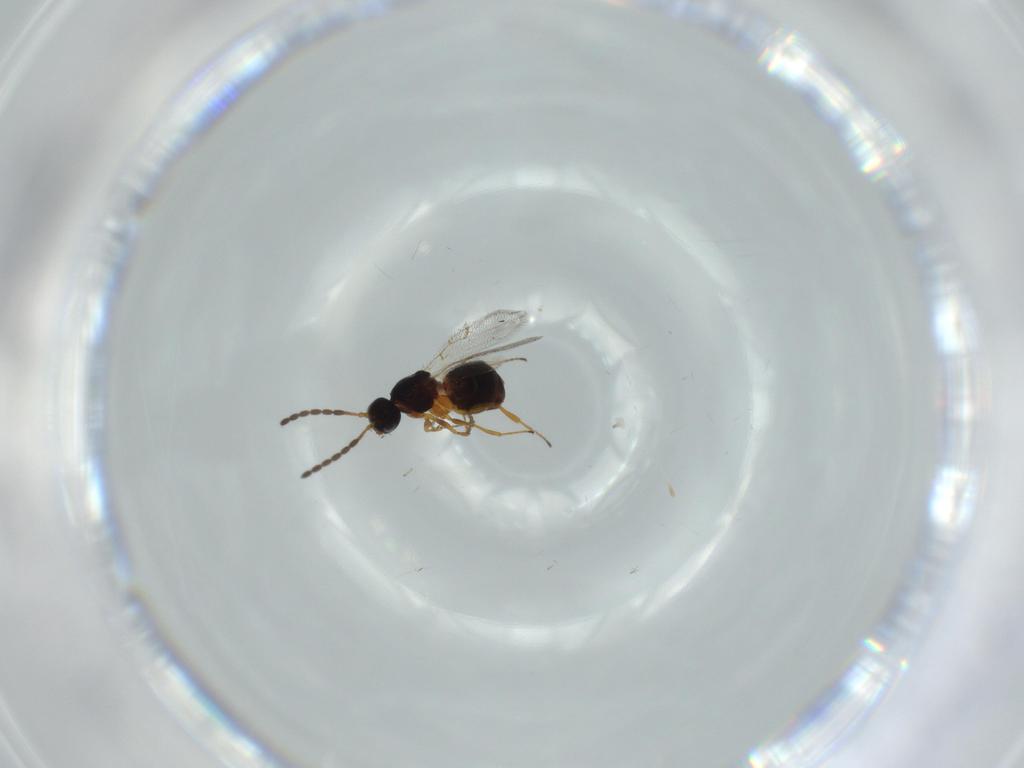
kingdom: Animalia
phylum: Arthropoda
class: Insecta
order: Hymenoptera
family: Figitidae
